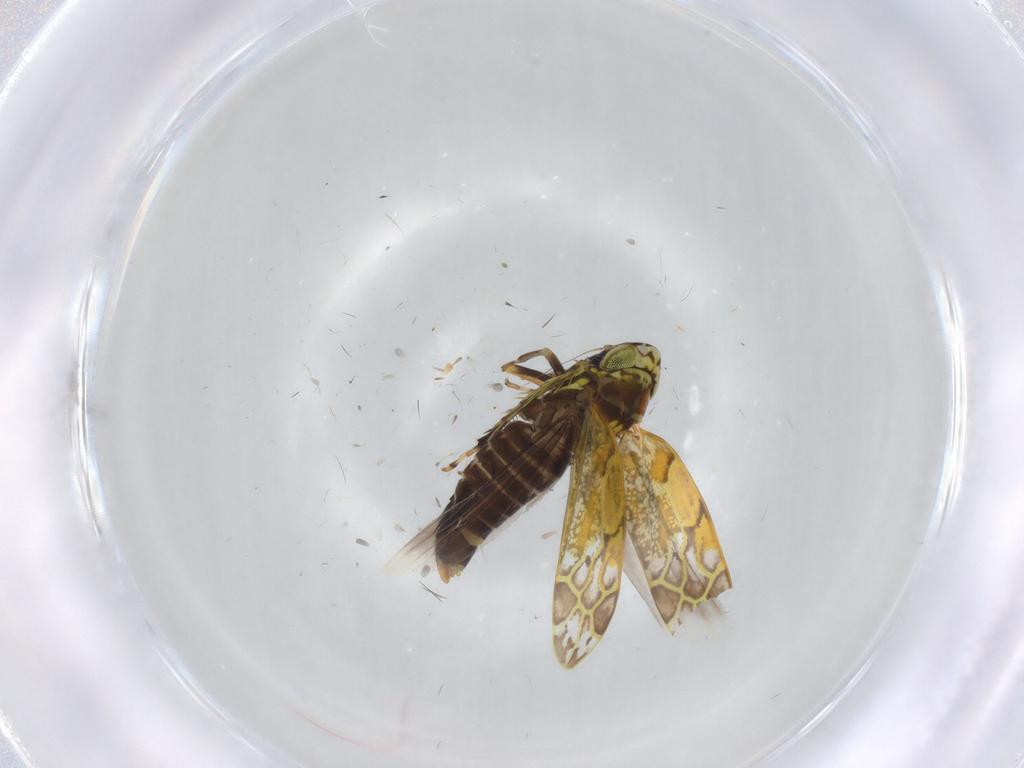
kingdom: Animalia
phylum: Arthropoda
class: Insecta
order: Hemiptera
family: Cicadellidae
